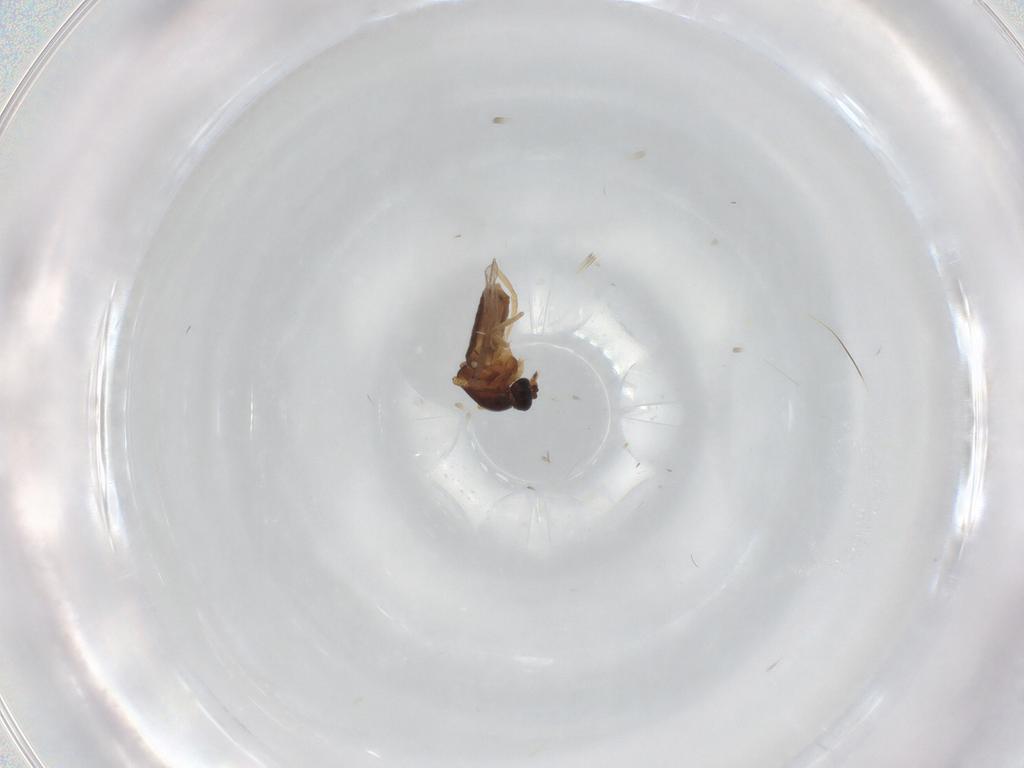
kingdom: Animalia
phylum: Arthropoda
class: Insecta
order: Diptera
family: Ceratopogonidae
